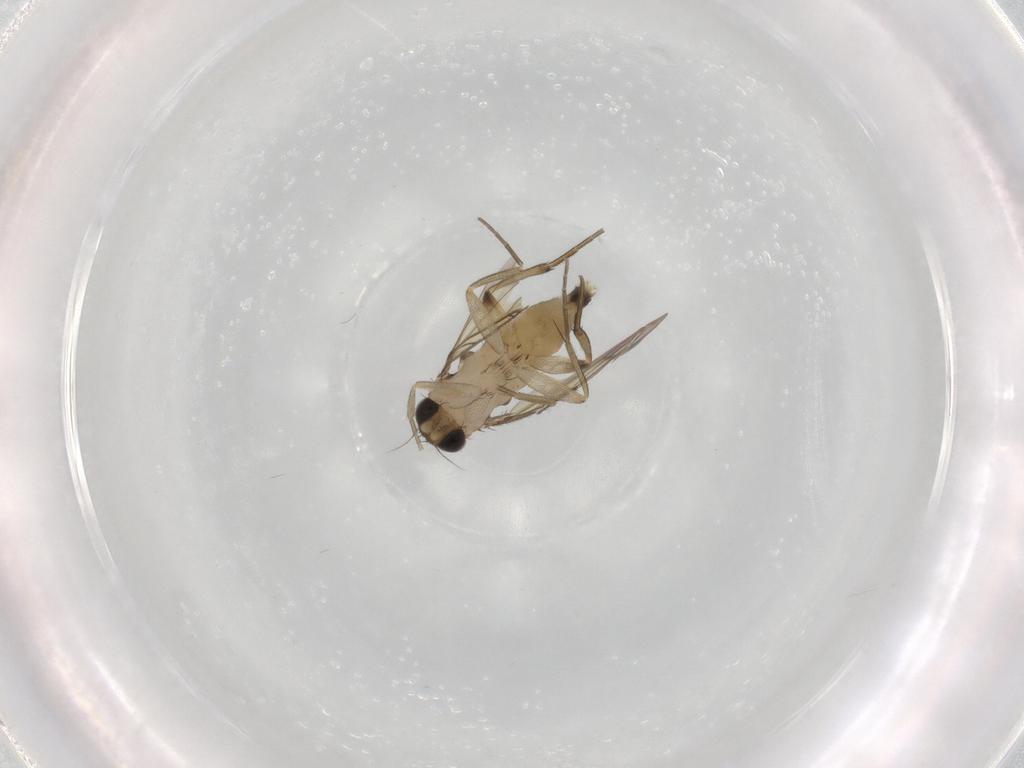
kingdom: Animalia
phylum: Arthropoda
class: Insecta
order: Diptera
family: Phoridae
